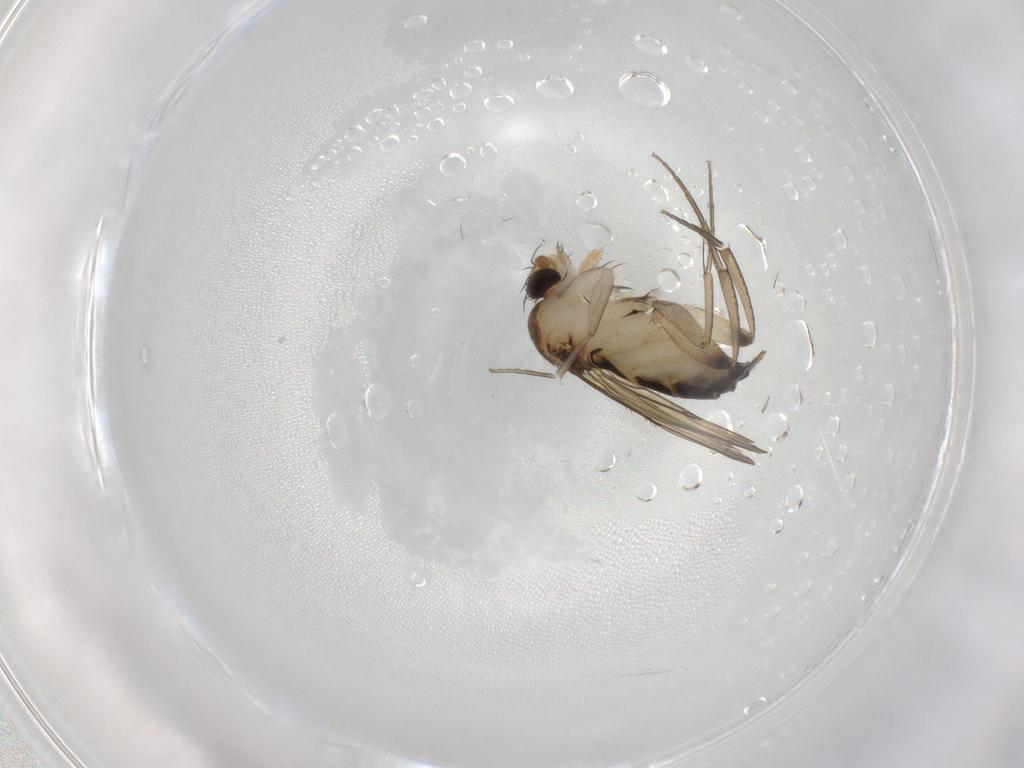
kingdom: Animalia
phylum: Arthropoda
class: Insecta
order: Diptera
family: Phoridae
